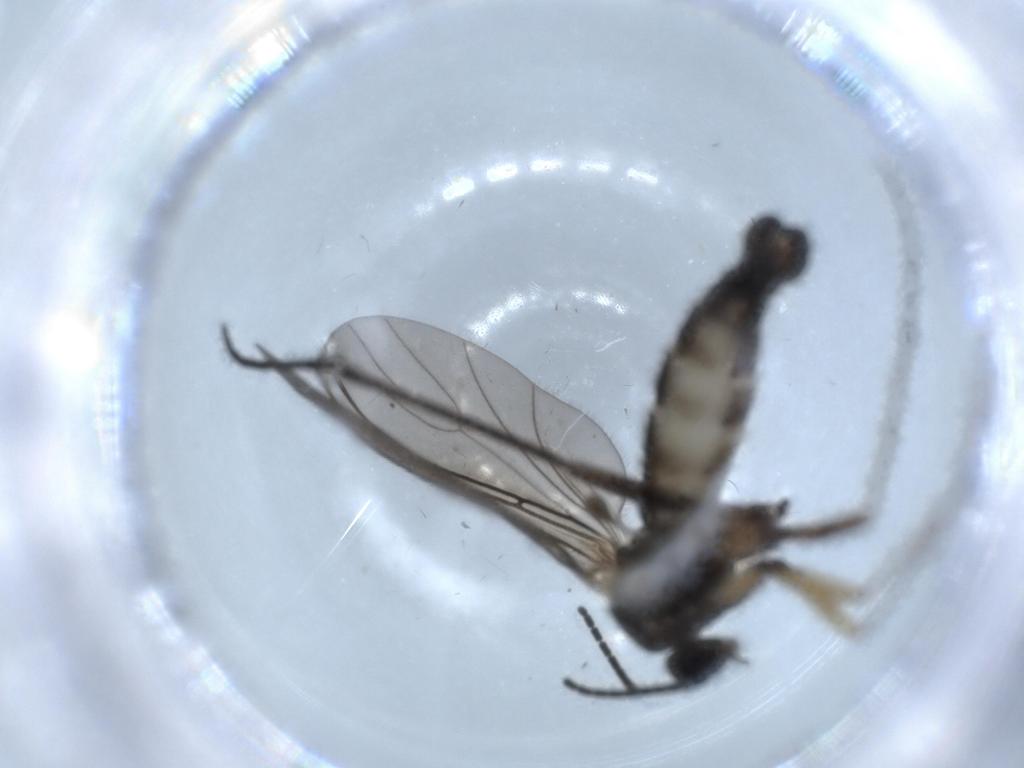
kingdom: Animalia
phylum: Arthropoda
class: Insecta
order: Diptera
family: Sciaridae
